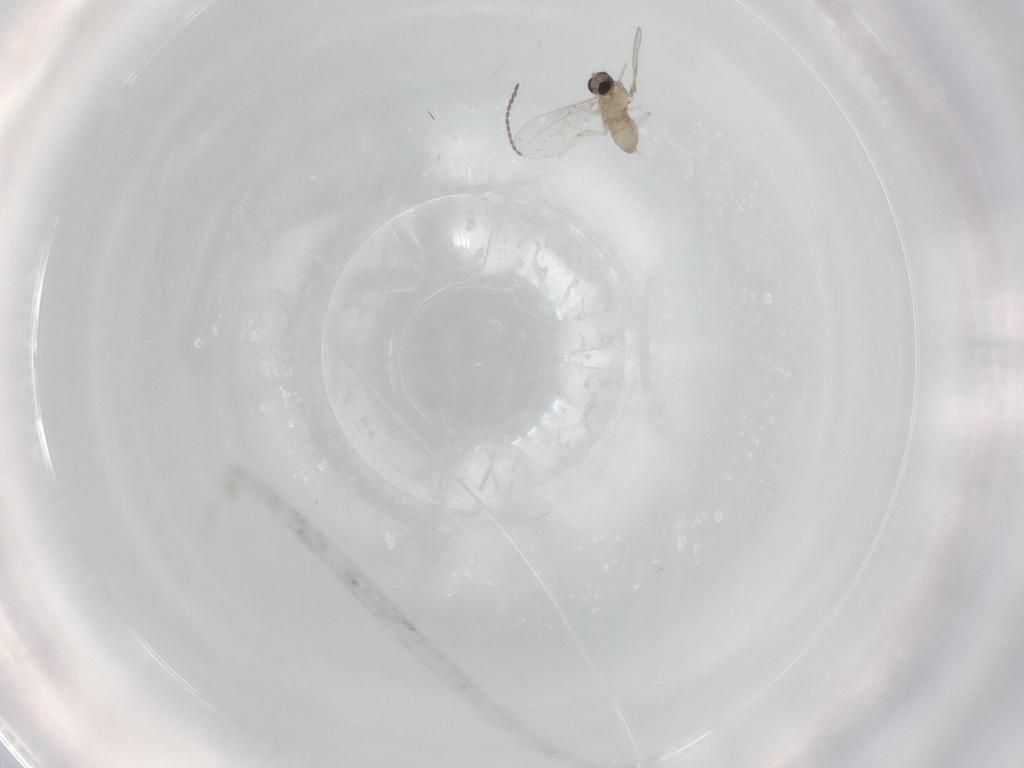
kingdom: Animalia
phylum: Arthropoda
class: Insecta
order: Diptera
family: Cecidomyiidae
